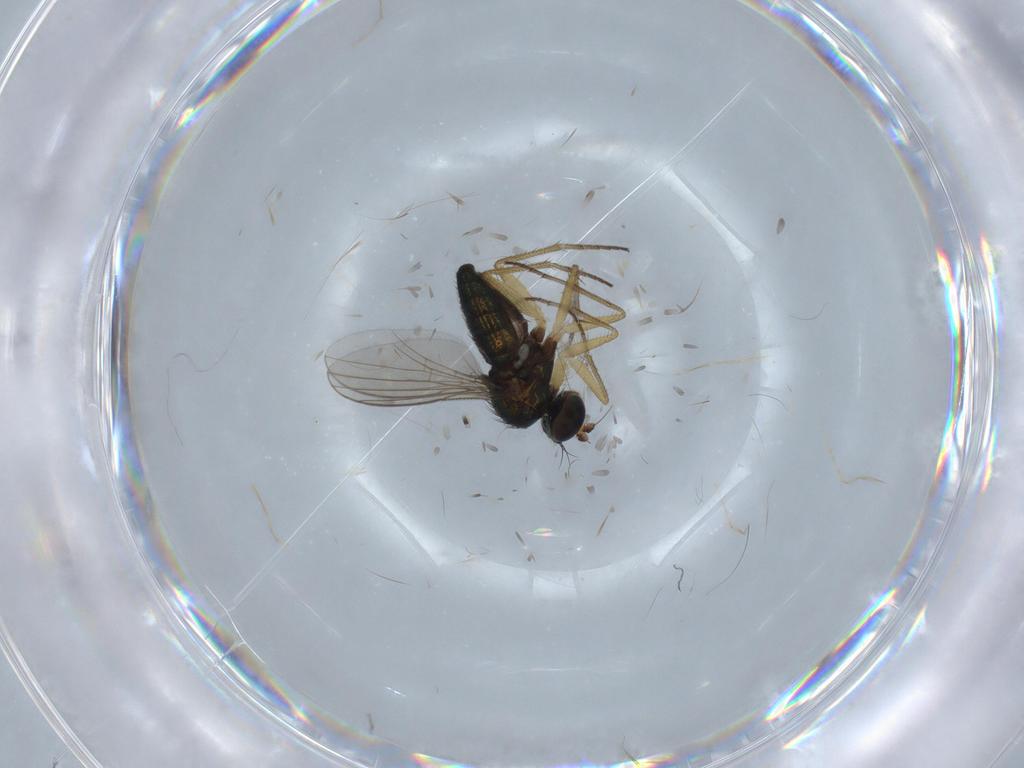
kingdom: Animalia
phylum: Arthropoda
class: Insecta
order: Diptera
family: Dolichopodidae
